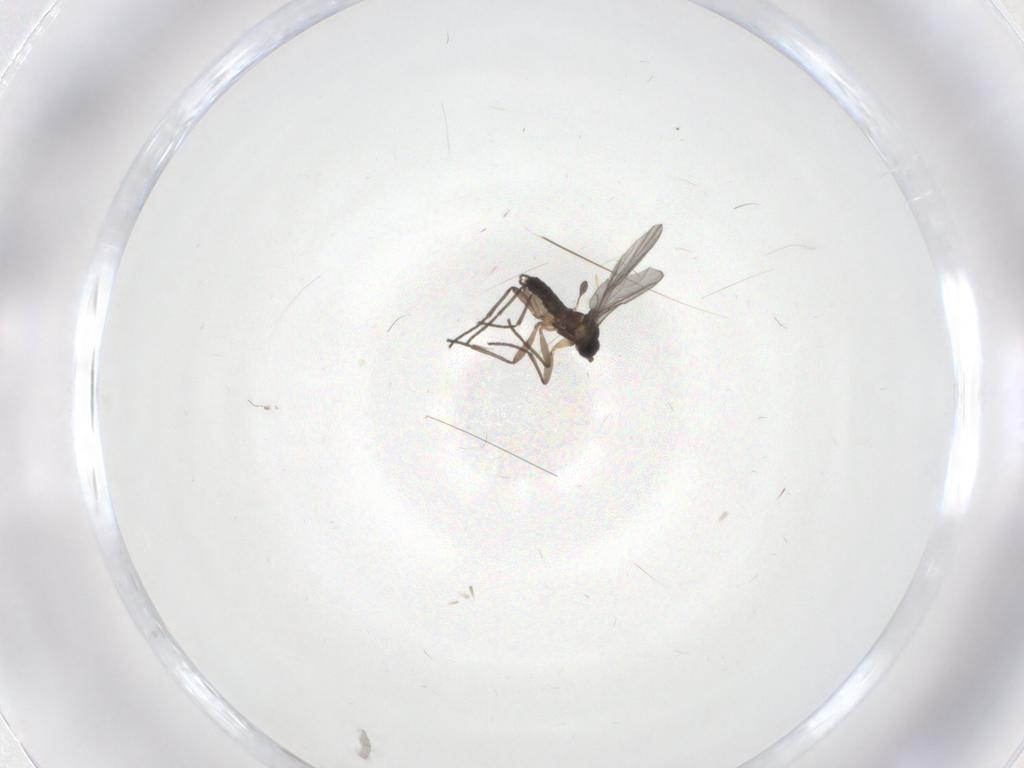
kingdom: Animalia
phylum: Arthropoda
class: Insecta
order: Diptera
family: Sciaridae
